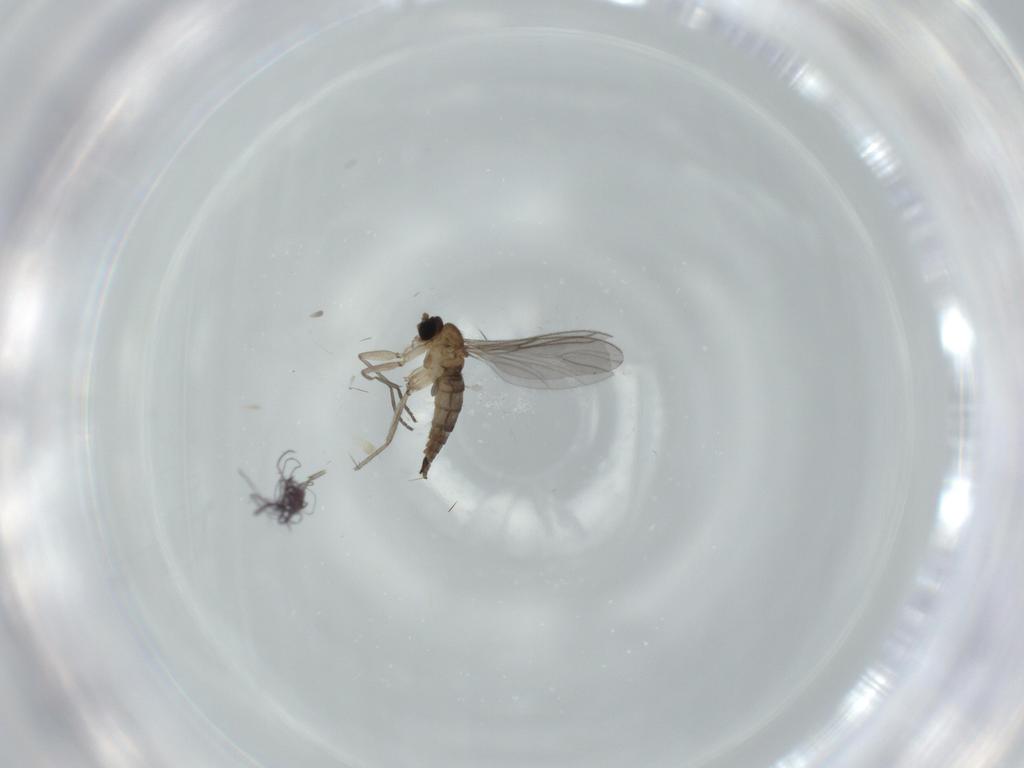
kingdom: Animalia
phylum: Arthropoda
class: Insecta
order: Diptera
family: Sciaridae
